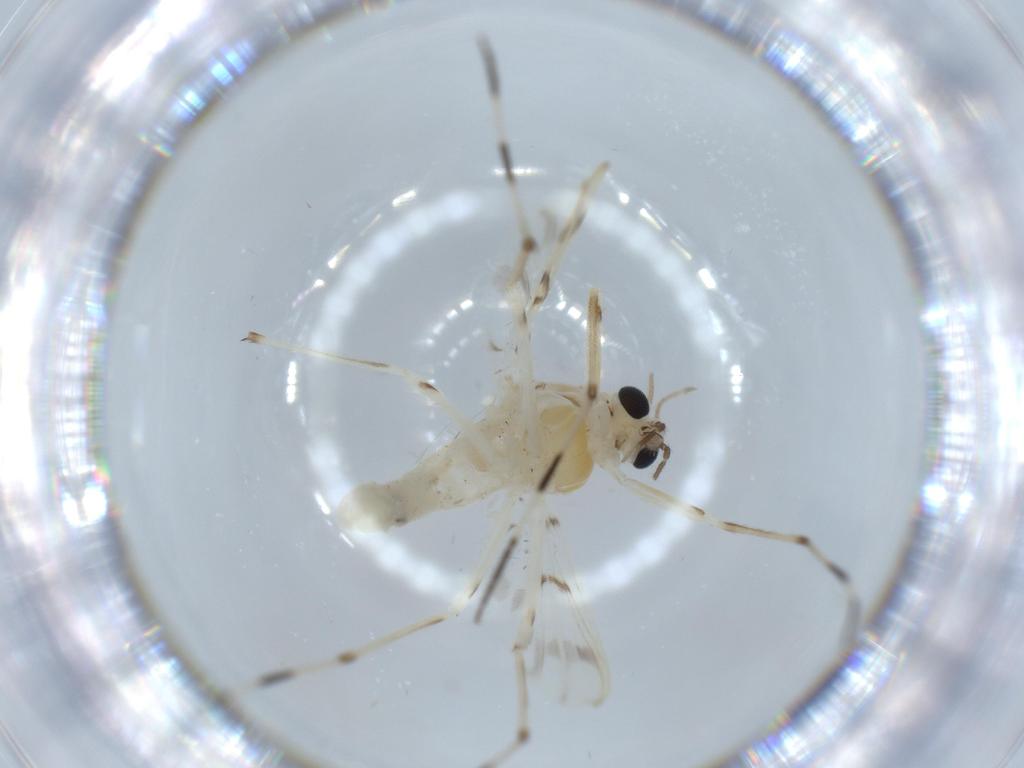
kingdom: Animalia
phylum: Arthropoda
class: Insecta
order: Diptera
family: Chironomidae
